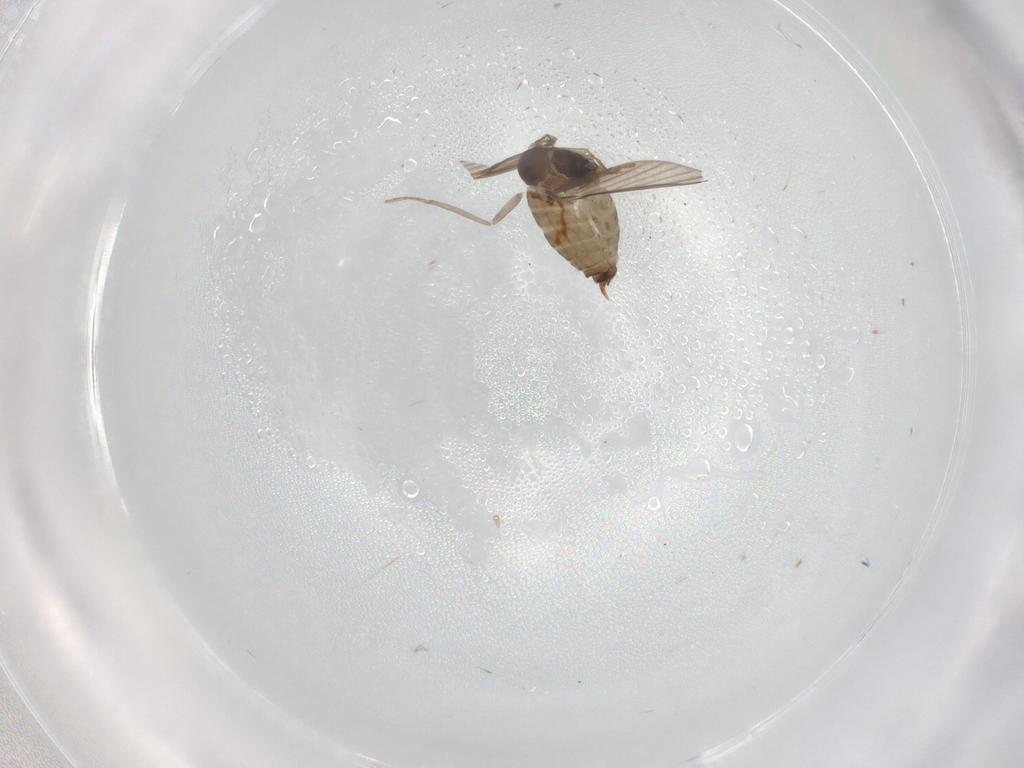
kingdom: Animalia
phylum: Arthropoda
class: Insecta
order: Diptera
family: Psychodidae
